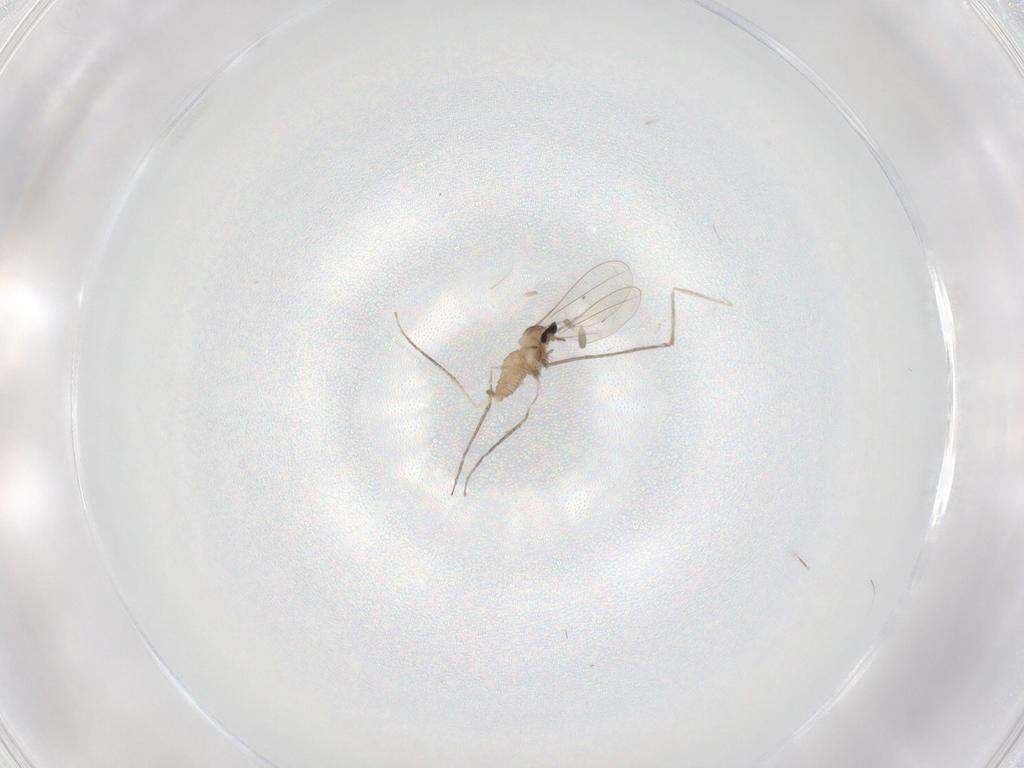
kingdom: Animalia
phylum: Arthropoda
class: Insecta
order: Diptera
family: Cecidomyiidae
